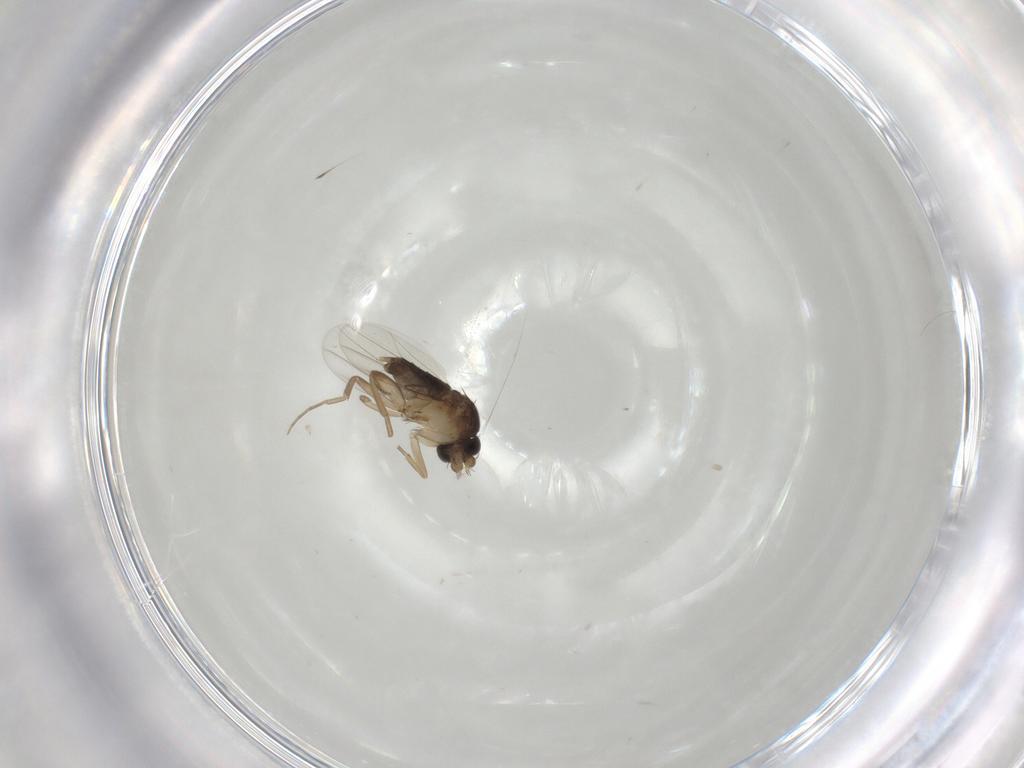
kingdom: Animalia
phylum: Arthropoda
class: Insecta
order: Diptera
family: Phoridae
